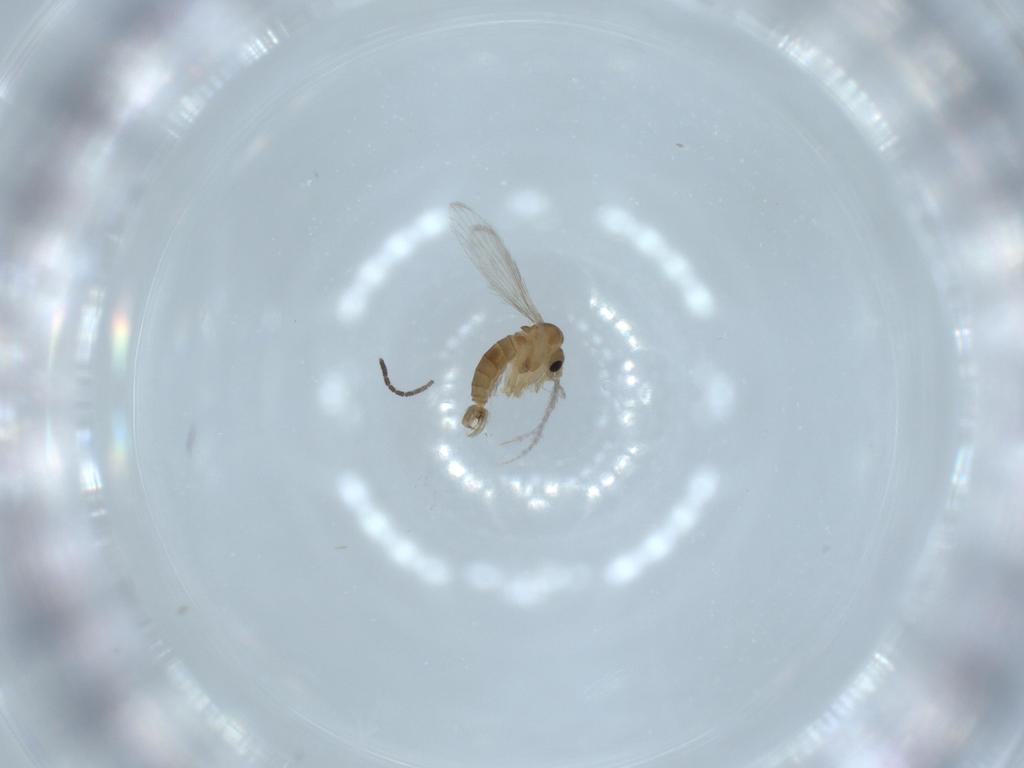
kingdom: Animalia
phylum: Arthropoda
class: Insecta
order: Diptera
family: Psychodidae
